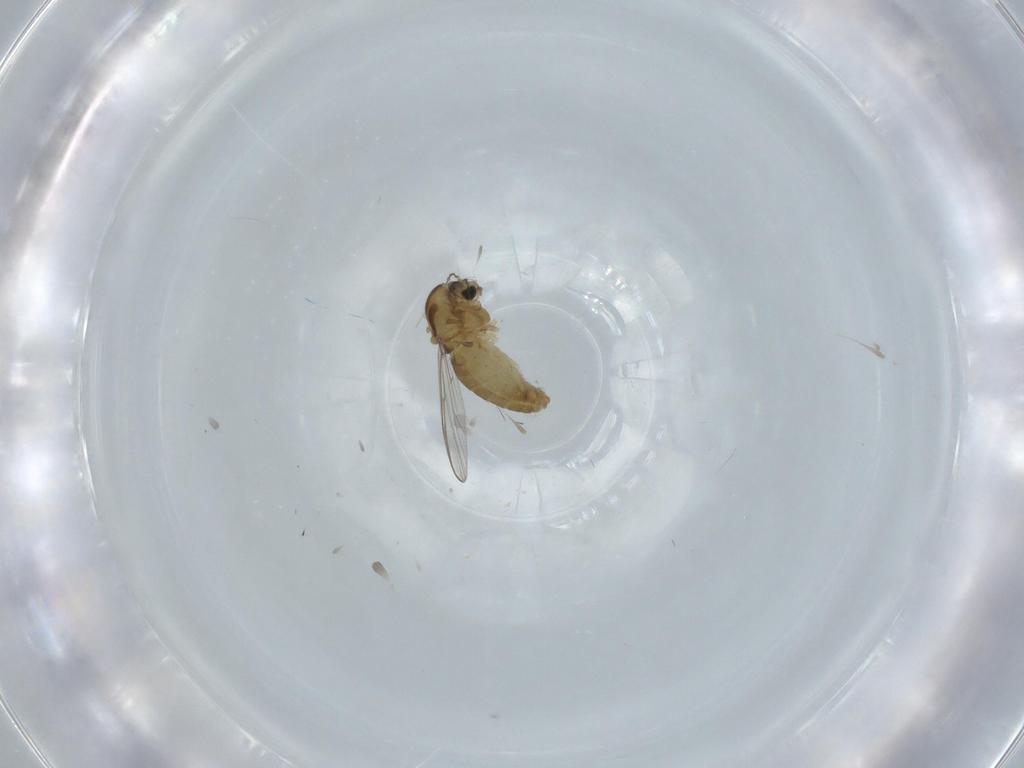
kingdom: Animalia
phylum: Arthropoda
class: Insecta
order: Diptera
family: Chironomidae
